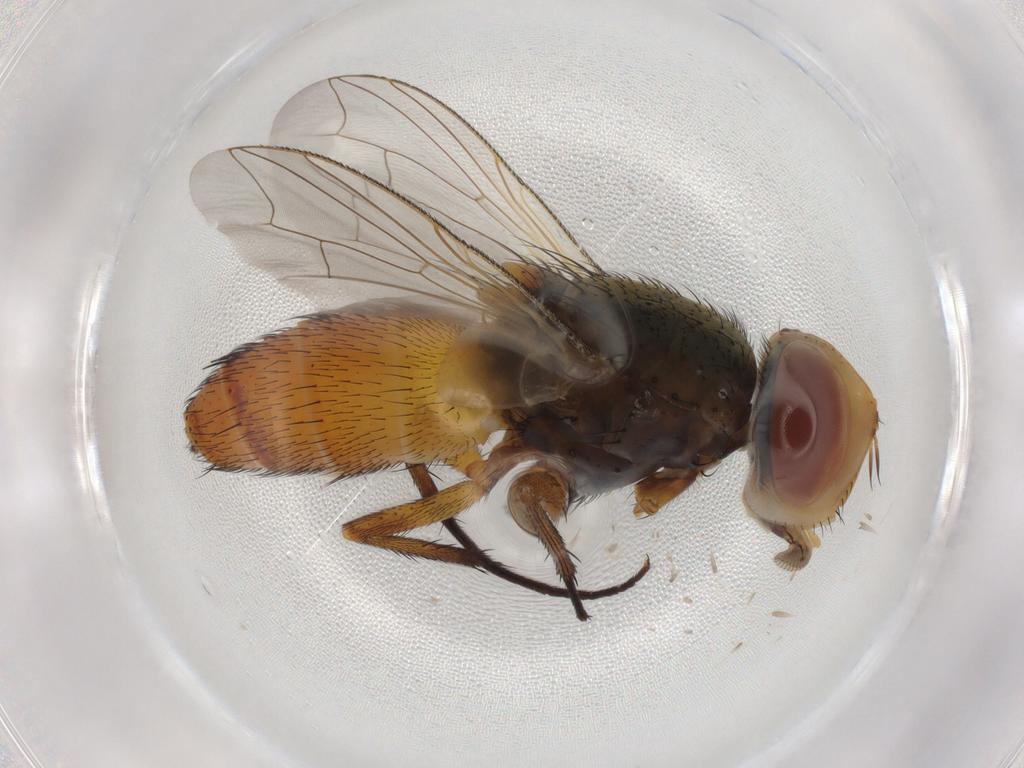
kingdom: Animalia
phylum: Arthropoda
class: Insecta
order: Diptera
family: Sarcophagidae
